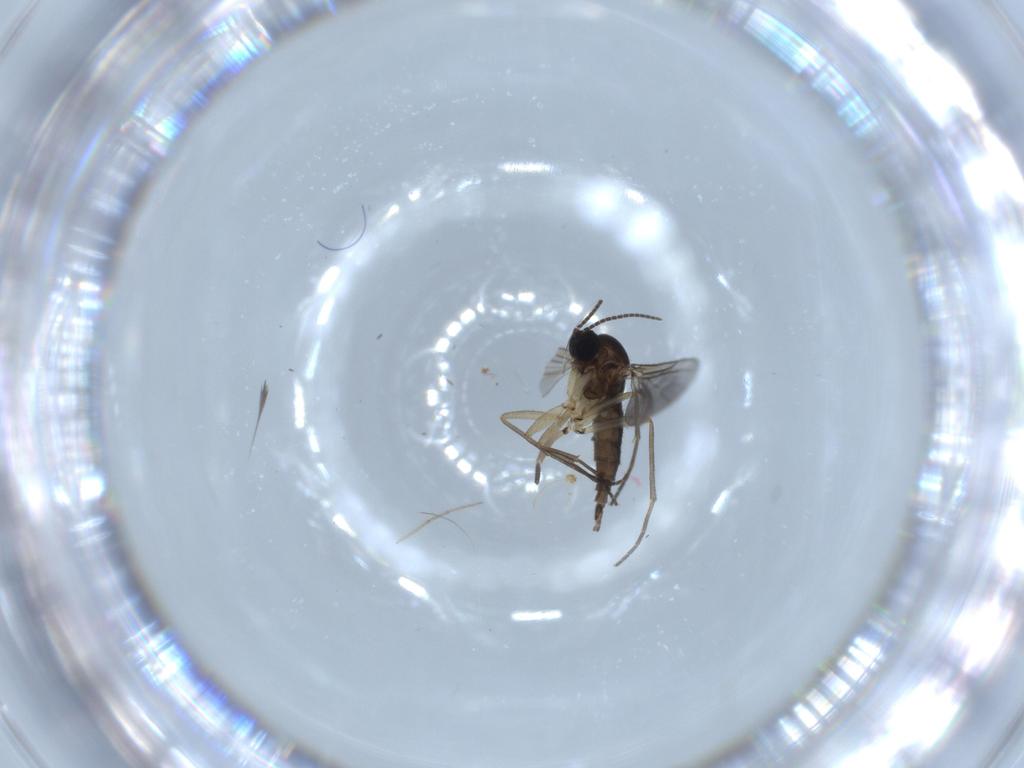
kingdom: Animalia
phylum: Arthropoda
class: Insecta
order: Diptera
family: Sciaridae
